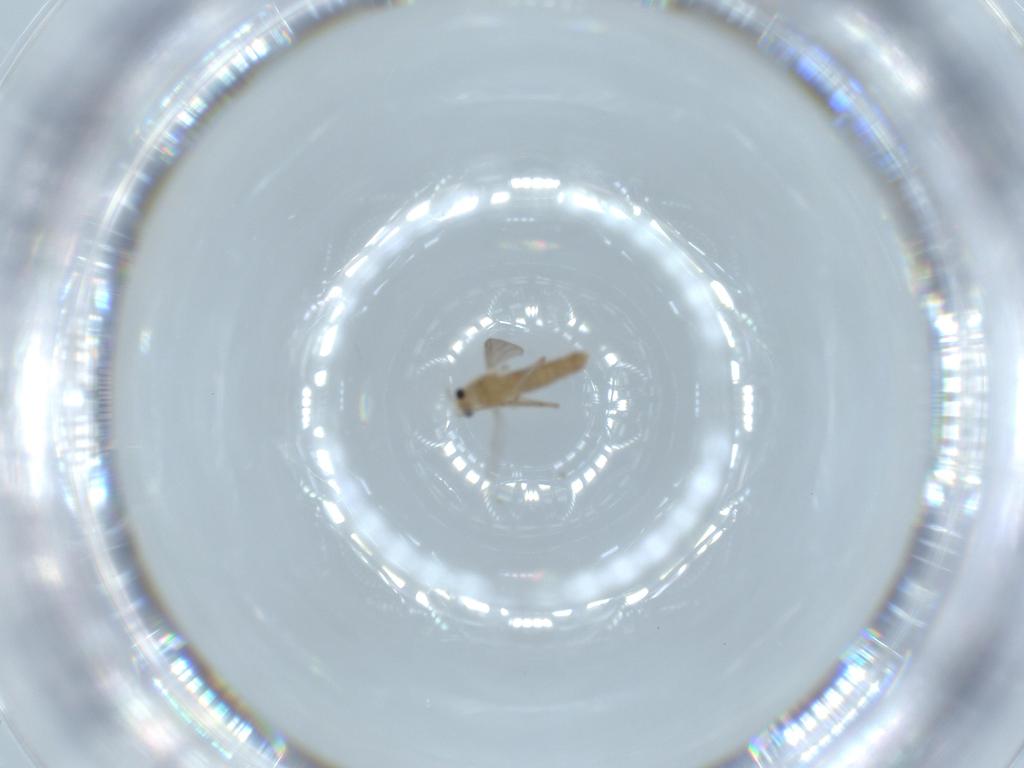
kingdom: Animalia
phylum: Arthropoda
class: Insecta
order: Diptera
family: Chironomidae
